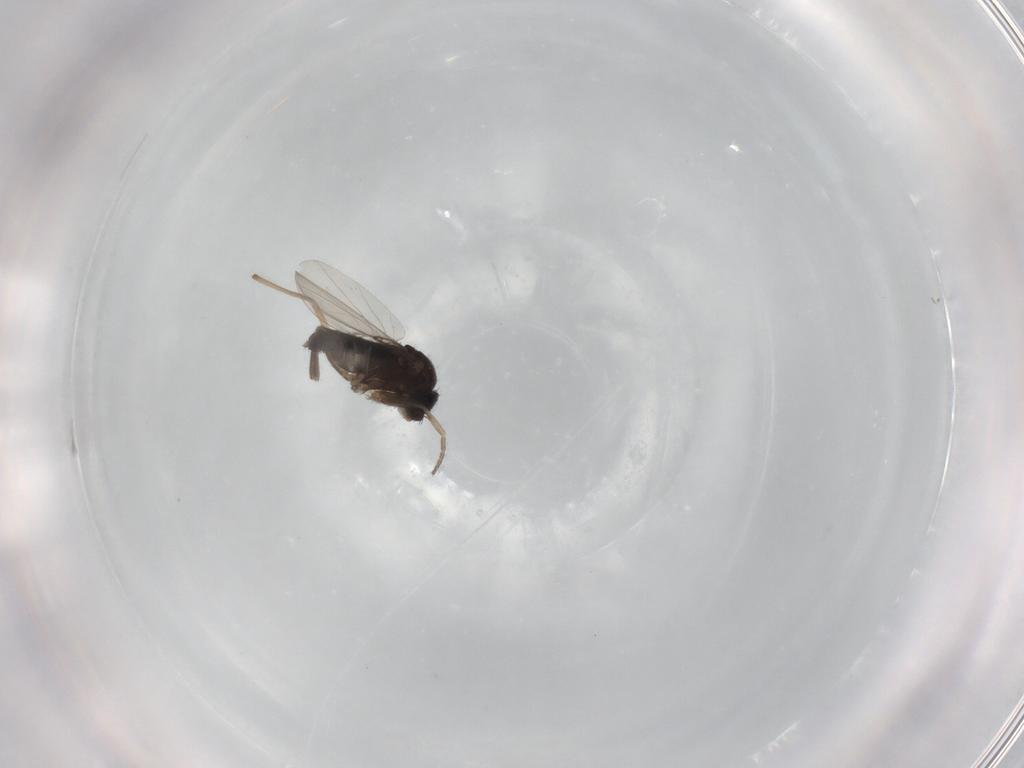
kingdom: Animalia
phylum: Arthropoda
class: Insecta
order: Diptera
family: Phoridae
